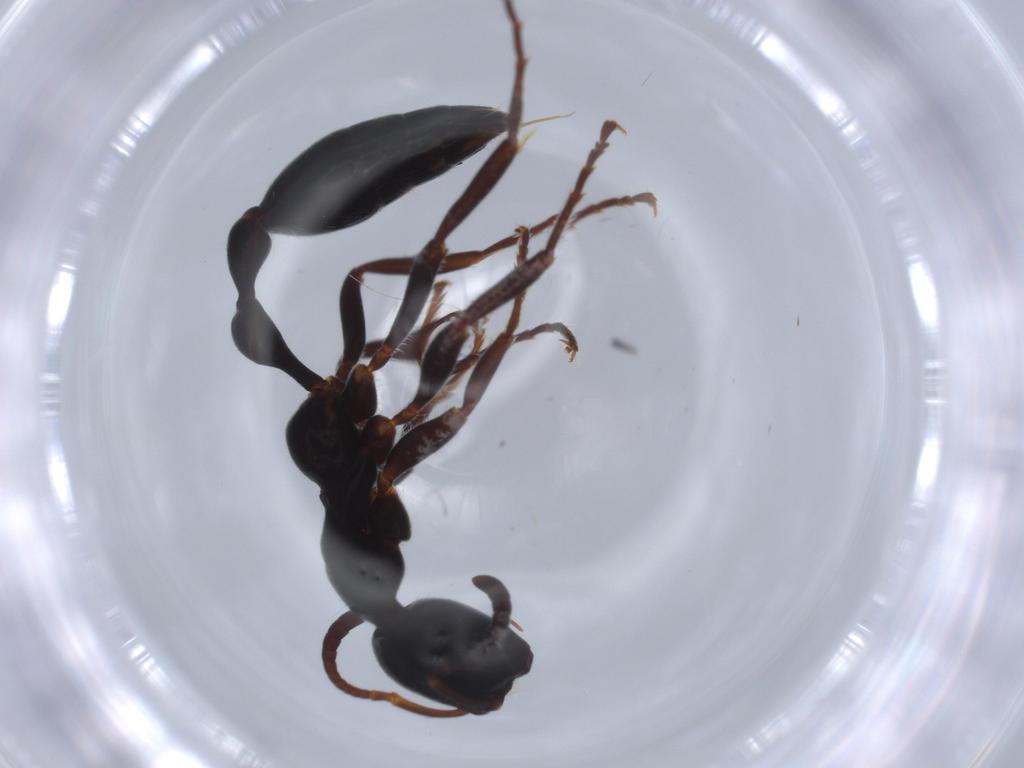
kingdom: Animalia
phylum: Arthropoda
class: Insecta
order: Hymenoptera
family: Formicidae
